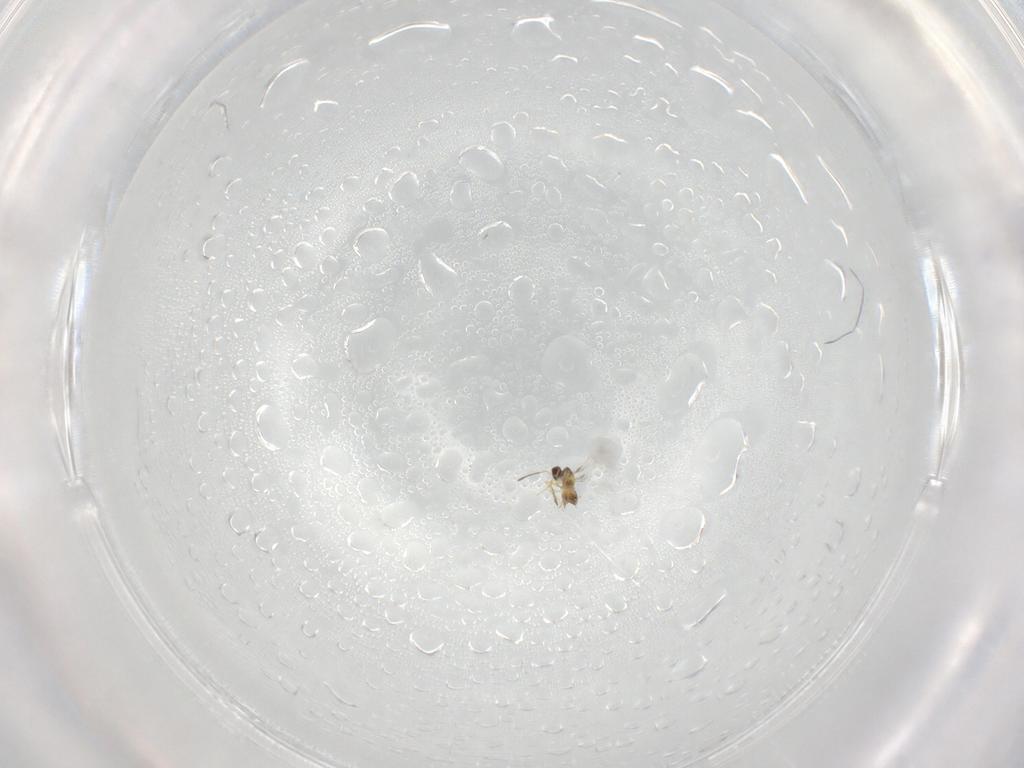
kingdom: Animalia
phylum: Arthropoda
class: Insecta
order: Hymenoptera
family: Mymaridae
